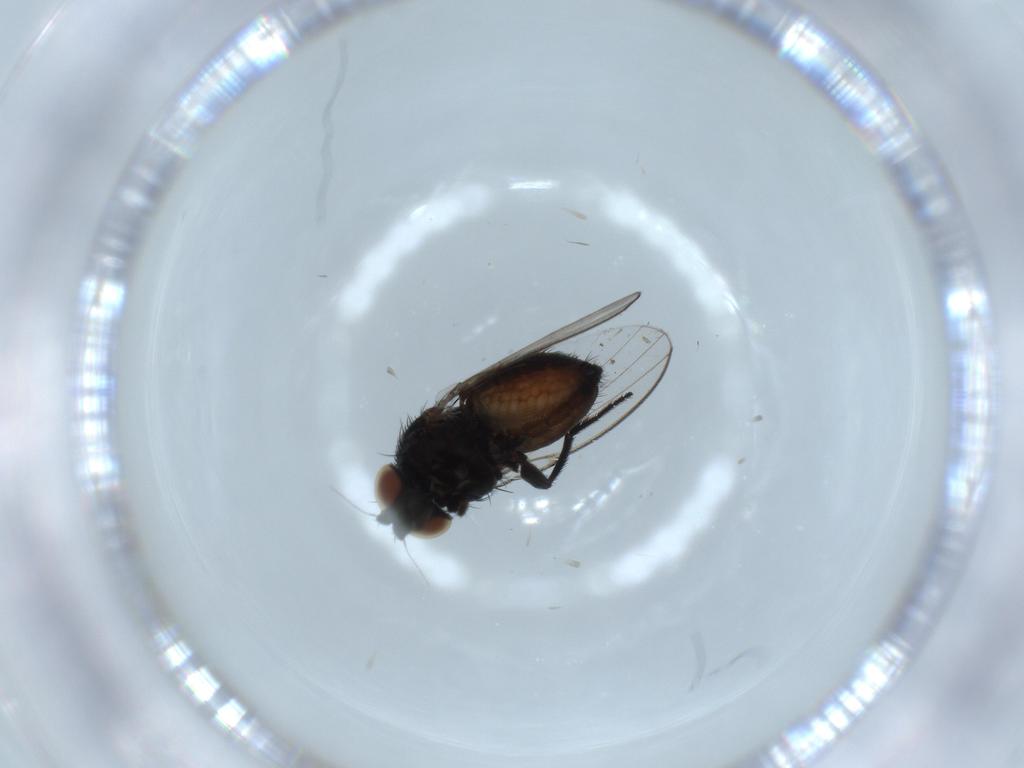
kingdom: Animalia
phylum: Arthropoda
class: Insecta
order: Diptera
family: Milichiidae
